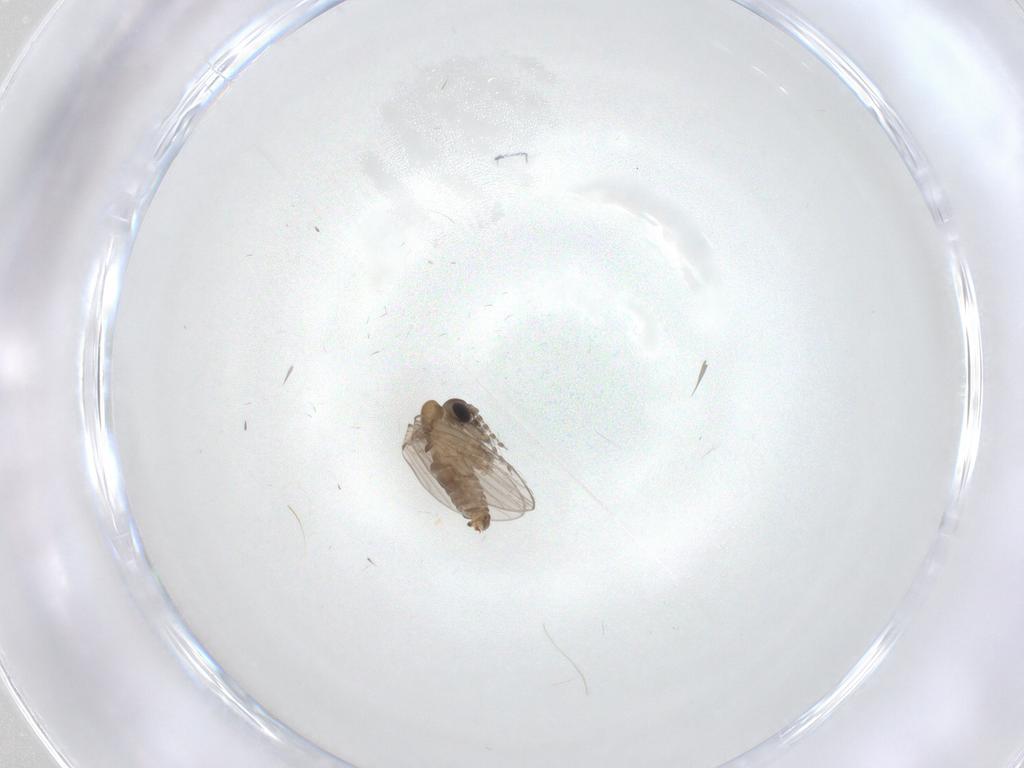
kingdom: Animalia
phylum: Arthropoda
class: Insecta
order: Diptera
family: Psychodidae
